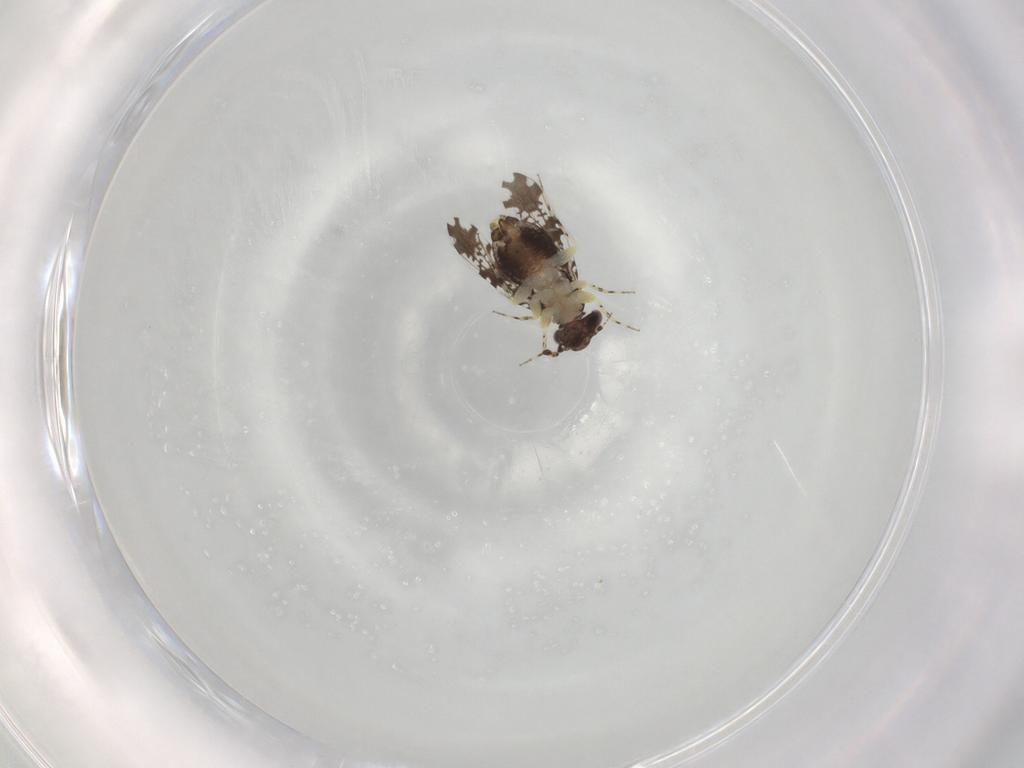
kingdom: Animalia
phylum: Arthropoda
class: Insecta
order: Psocodea
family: Psoquillidae
